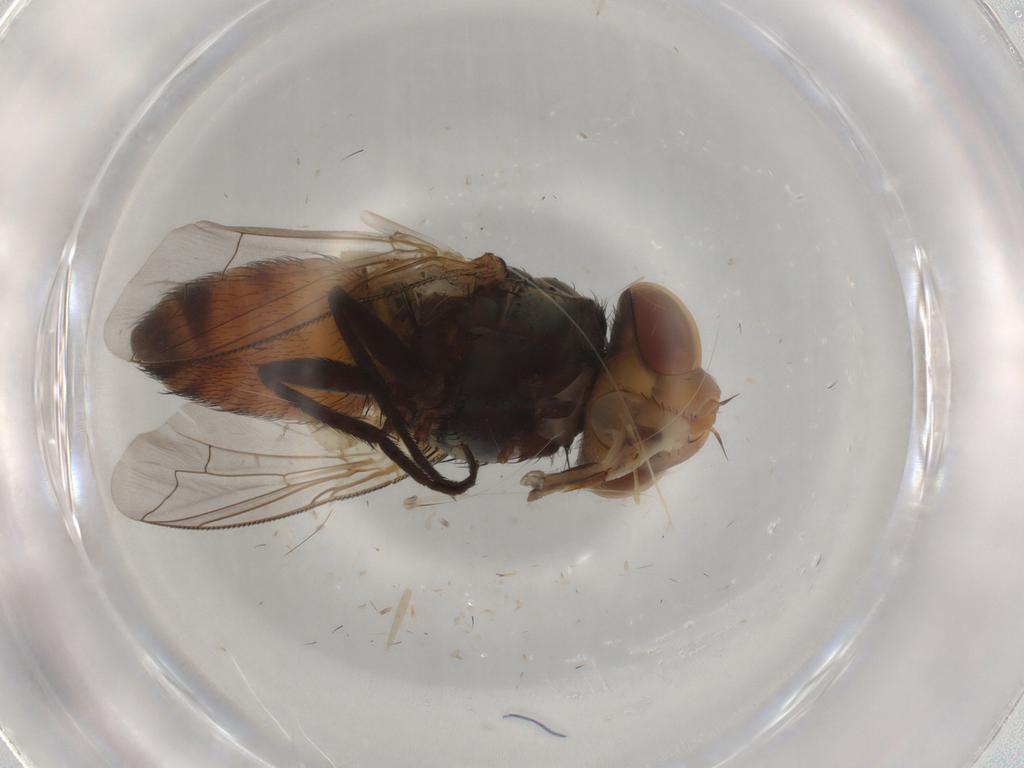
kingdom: Animalia
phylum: Arthropoda
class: Insecta
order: Diptera
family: Sarcophagidae
